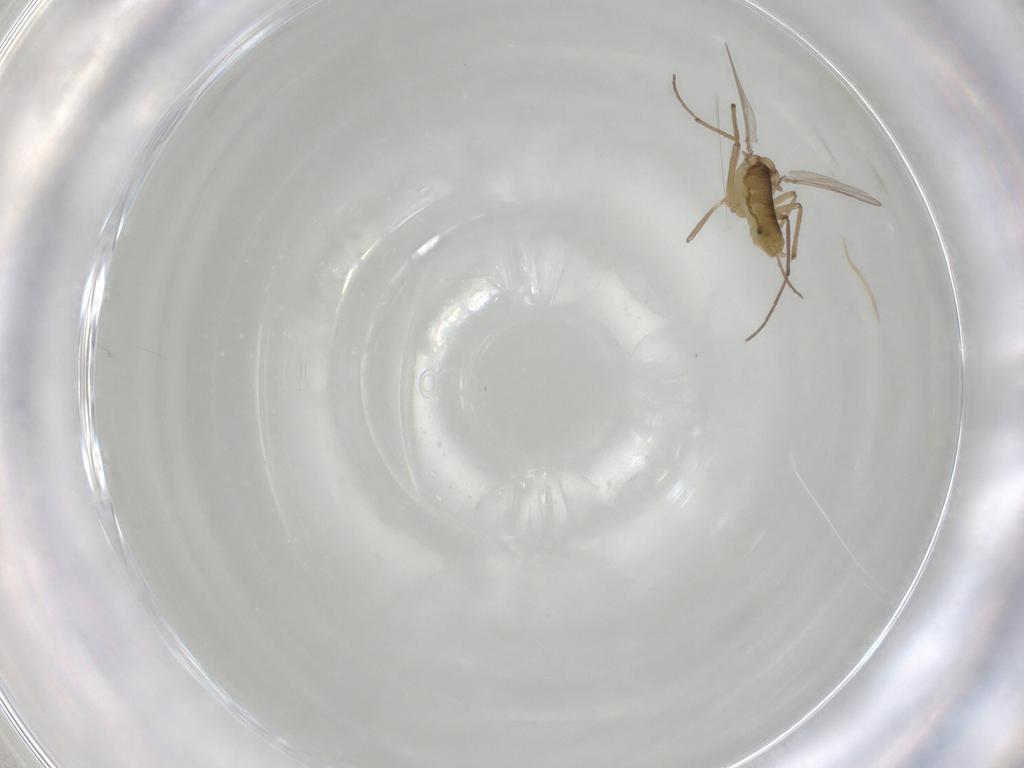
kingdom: Animalia
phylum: Arthropoda
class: Insecta
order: Diptera
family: Chironomidae
